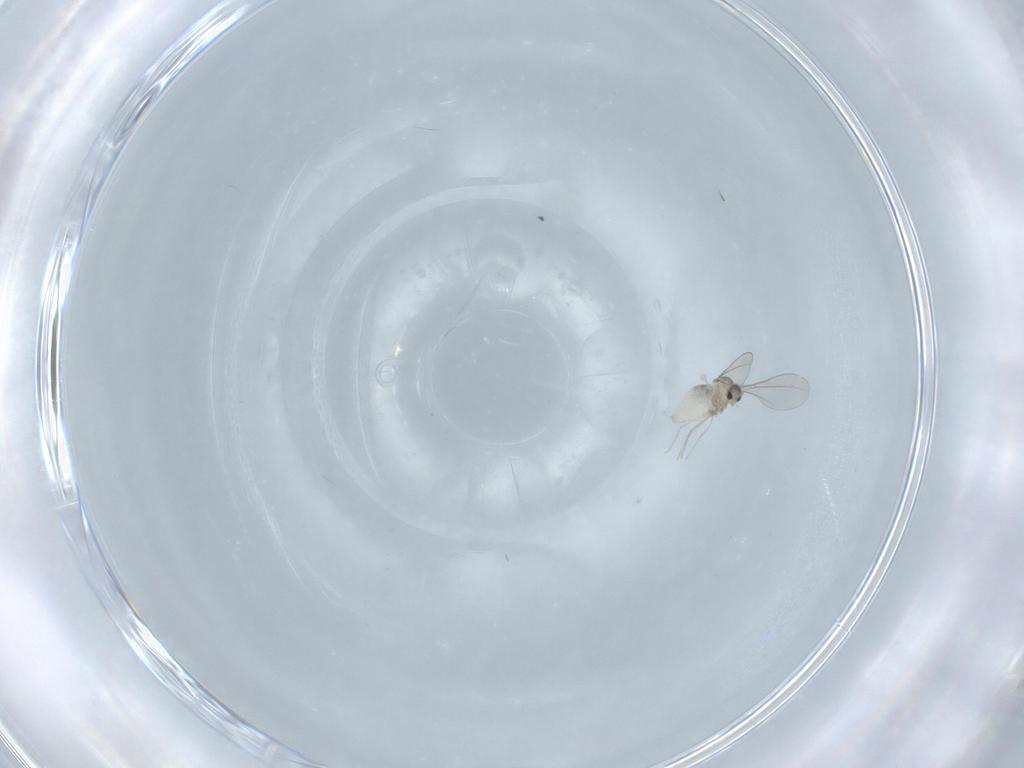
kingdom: Animalia
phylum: Arthropoda
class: Insecta
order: Diptera
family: Cecidomyiidae
